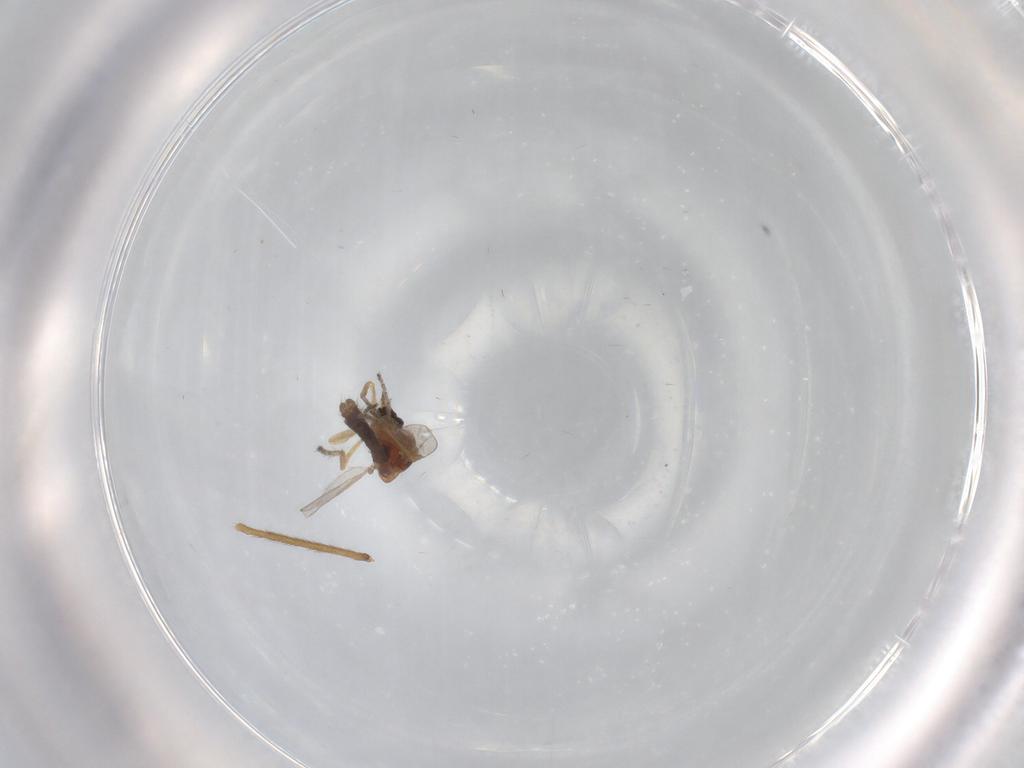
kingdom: Animalia
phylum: Arthropoda
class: Insecta
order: Diptera
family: Ceratopogonidae
